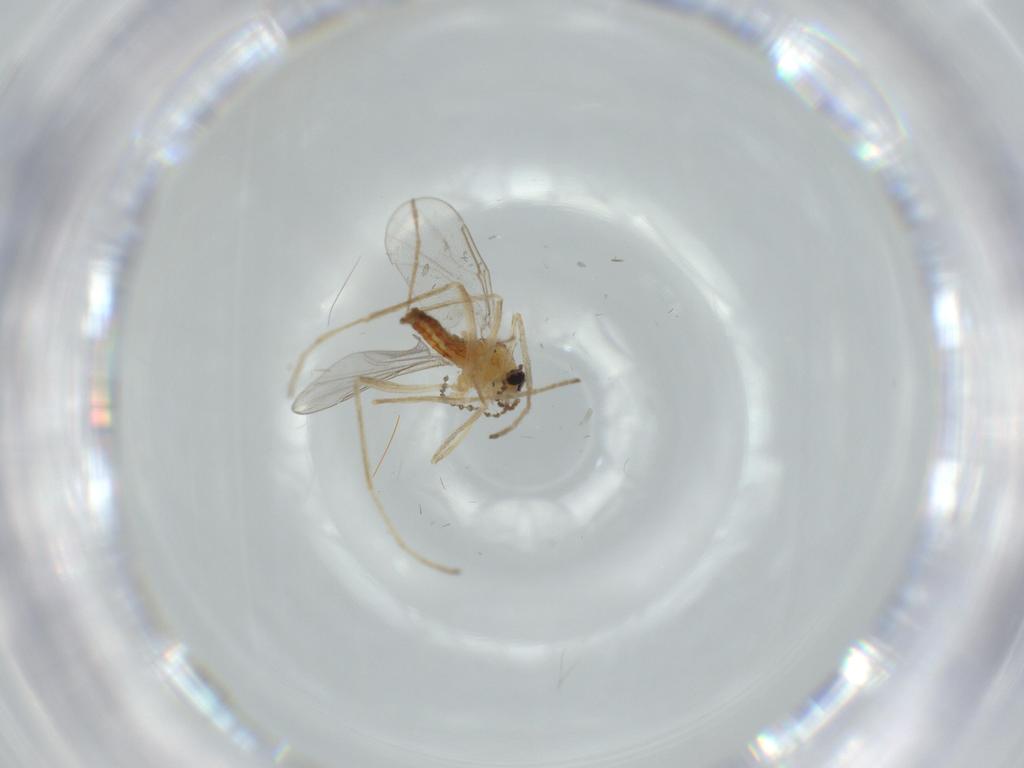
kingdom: Animalia
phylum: Arthropoda
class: Insecta
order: Diptera
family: Cecidomyiidae
